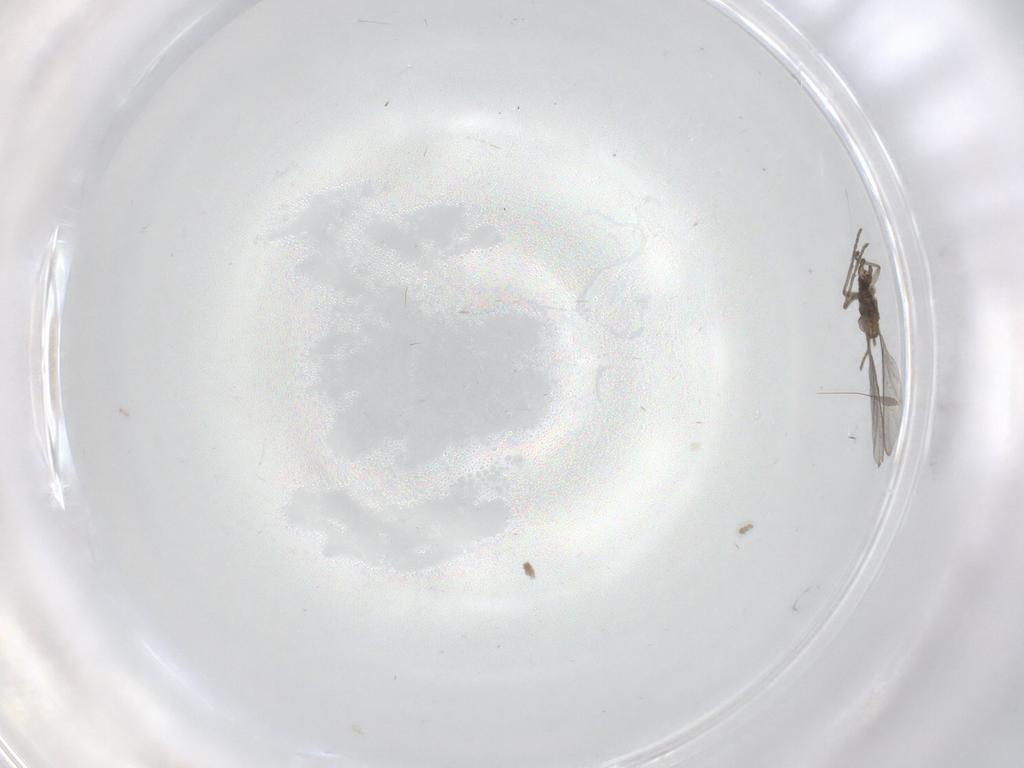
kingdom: Animalia
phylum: Arthropoda
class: Insecta
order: Diptera
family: Sciaridae
